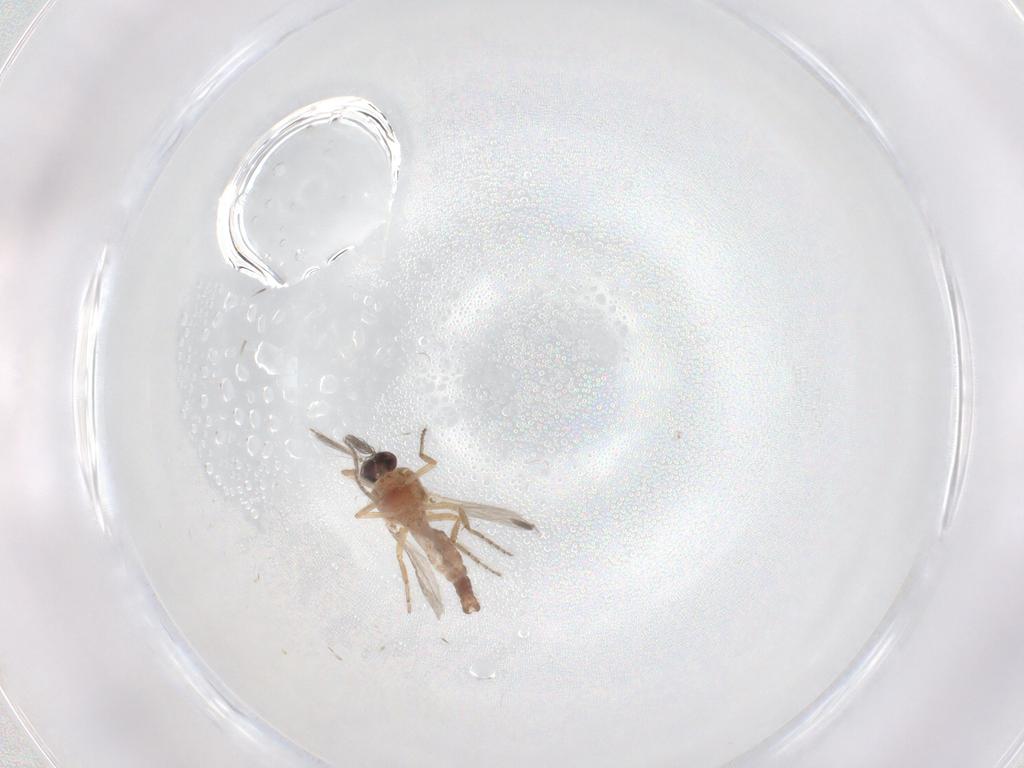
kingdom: Animalia
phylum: Arthropoda
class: Insecta
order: Diptera
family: Ceratopogonidae
